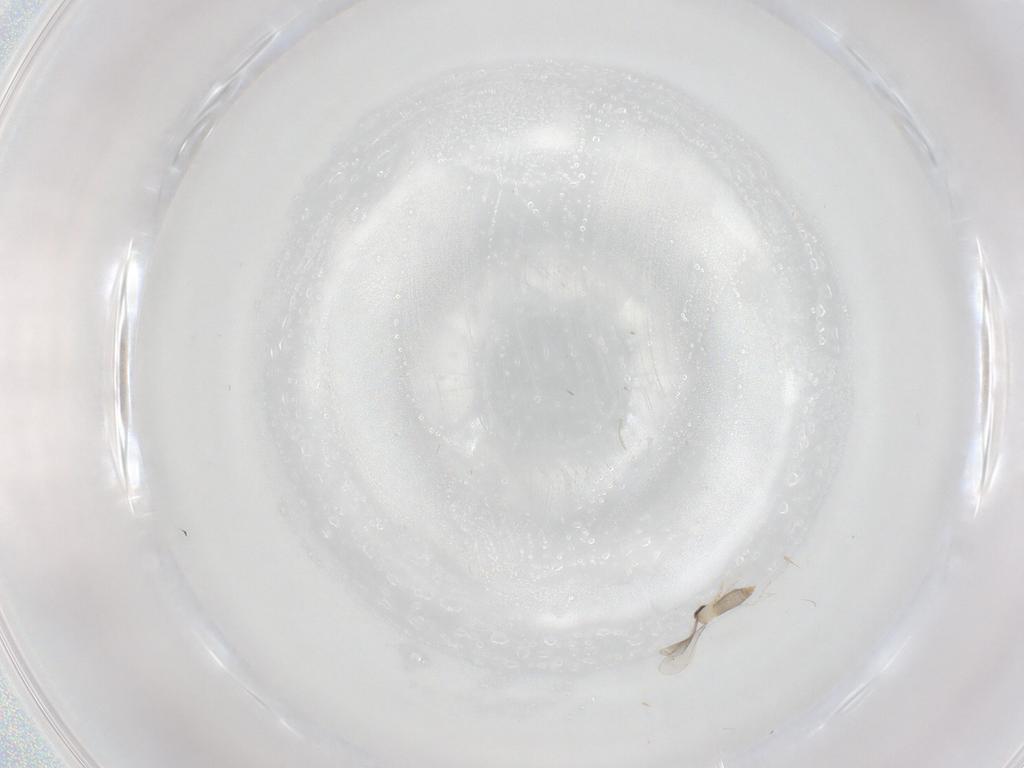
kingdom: Animalia
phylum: Arthropoda
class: Insecta
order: Diptera
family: Cecidomyiidae
